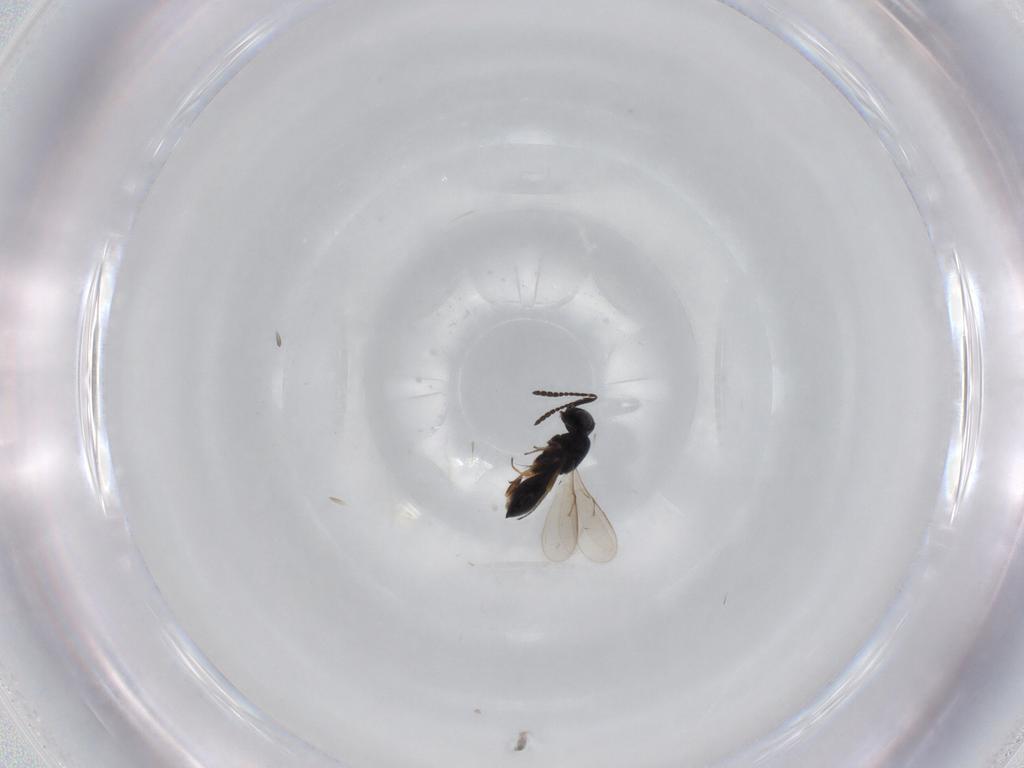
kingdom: Animalia
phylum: Arthropoda
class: Insecta
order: Hymenoptera
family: Scelionidae
